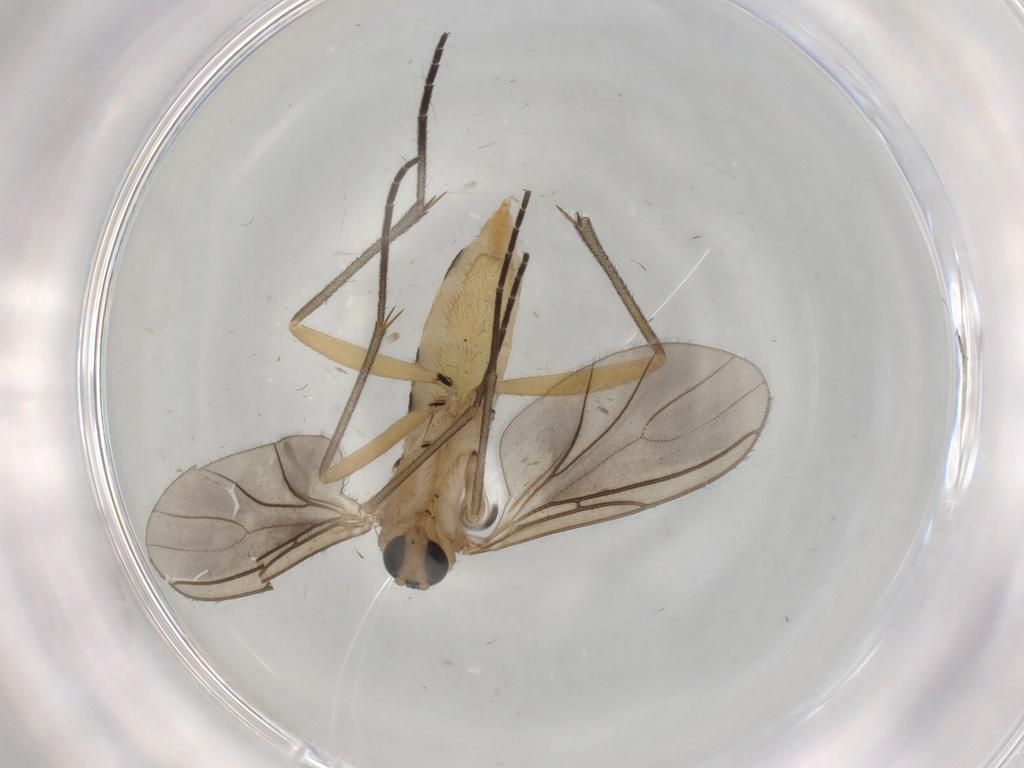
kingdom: Animalia
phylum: Arthropoda
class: Insecta
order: Diptera
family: Sciaridae
